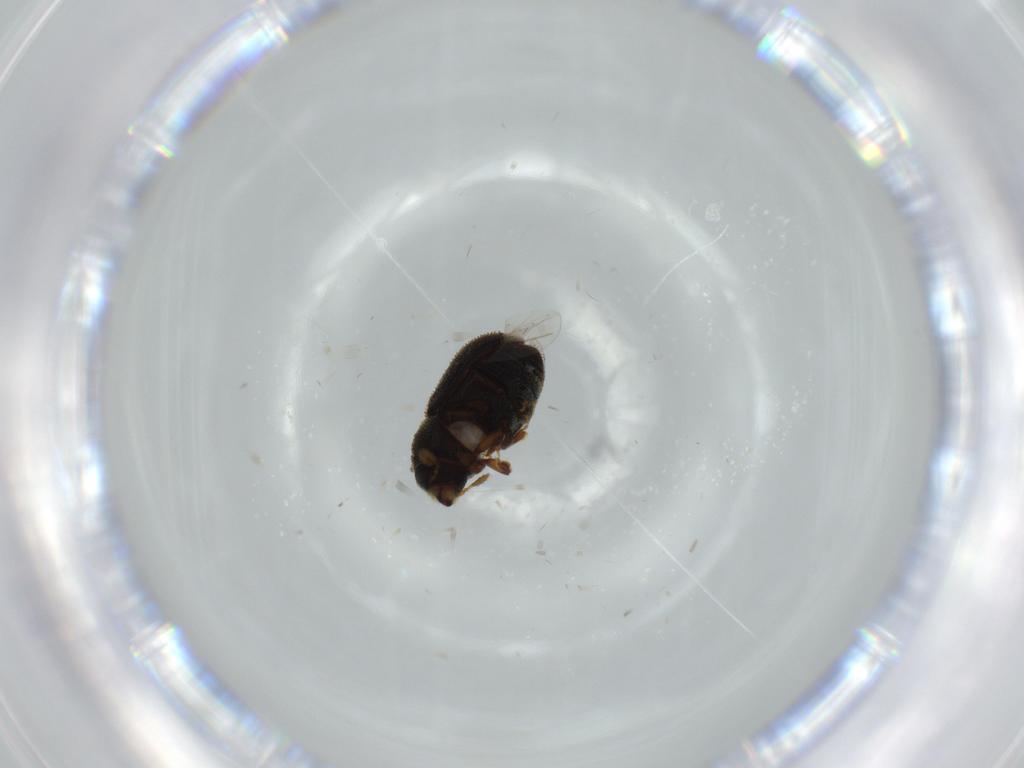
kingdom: Animalia
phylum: Arthropoda
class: Insecta
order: Coleoptera
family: Cleridae
